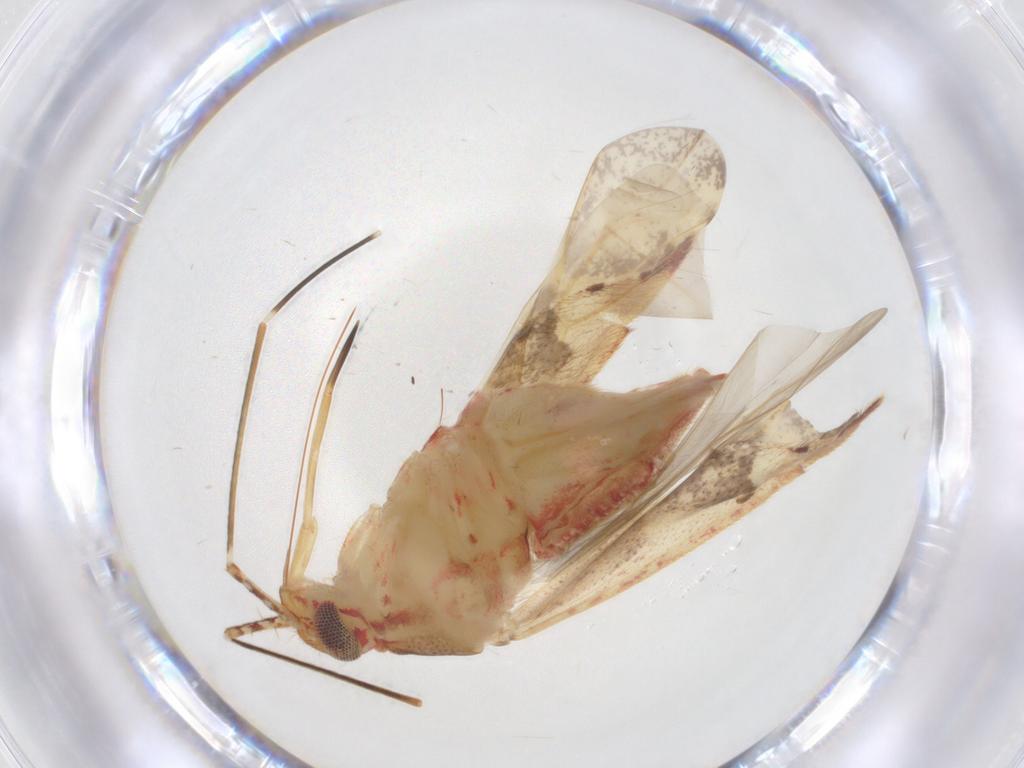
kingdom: Animalia
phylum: Arthropoda
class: Insecta
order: Hemiptera
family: Miridae
